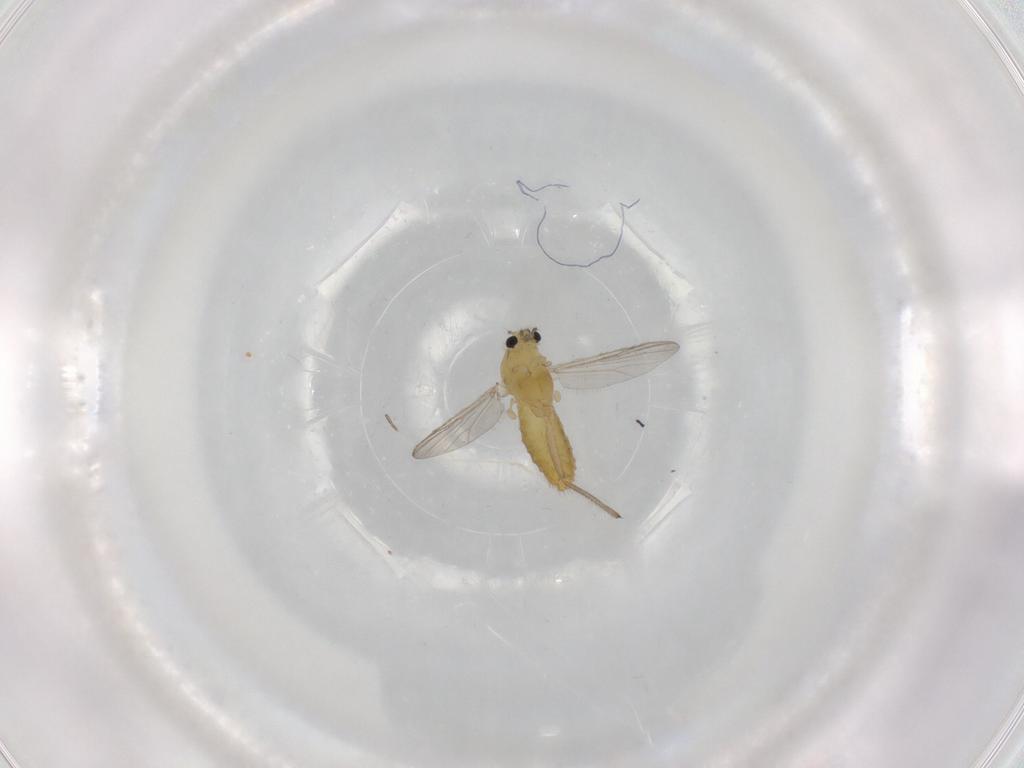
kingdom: Animalia
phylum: Arthropoda
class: Insecta
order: Diptera
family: Chironomidae
